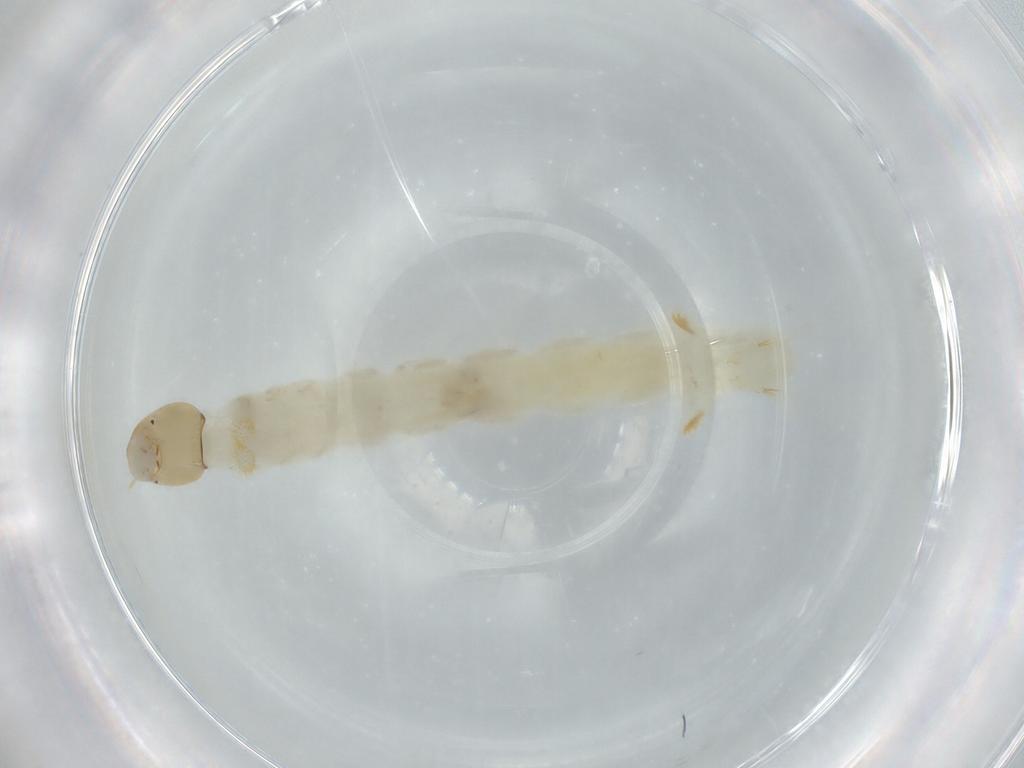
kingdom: Animalia
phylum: Arthropoda
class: Insecta
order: Diptera
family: Chironomidae
